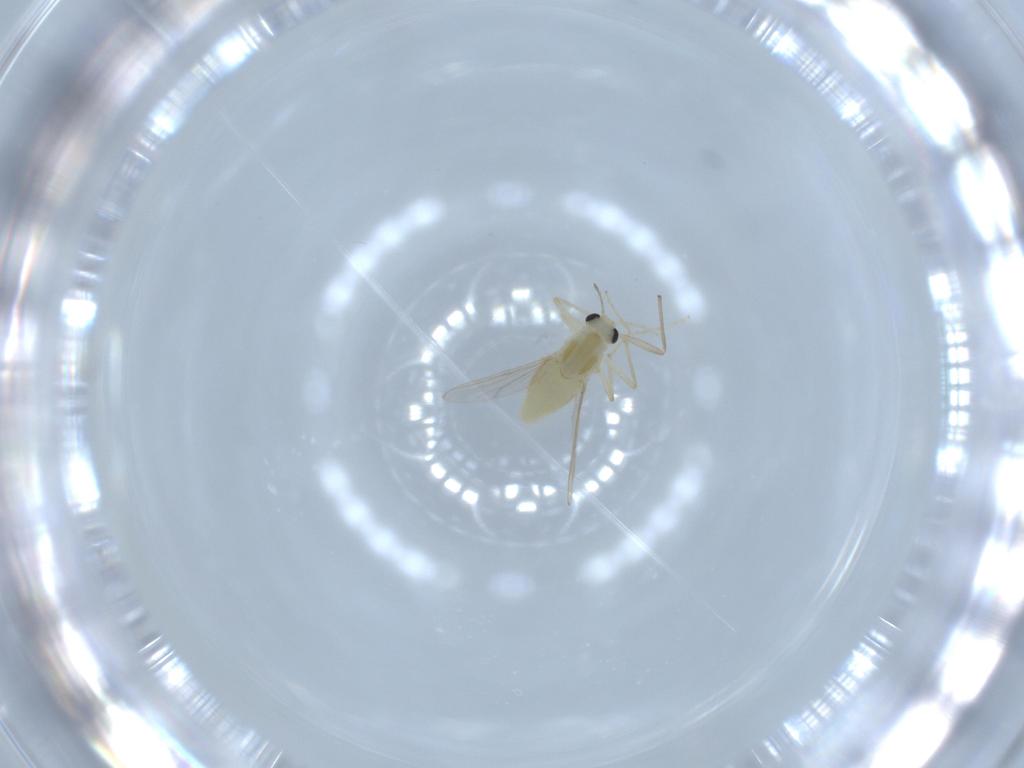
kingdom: Animalia
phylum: Arthropoda
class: Insecta
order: Diptera
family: Chironomidae
